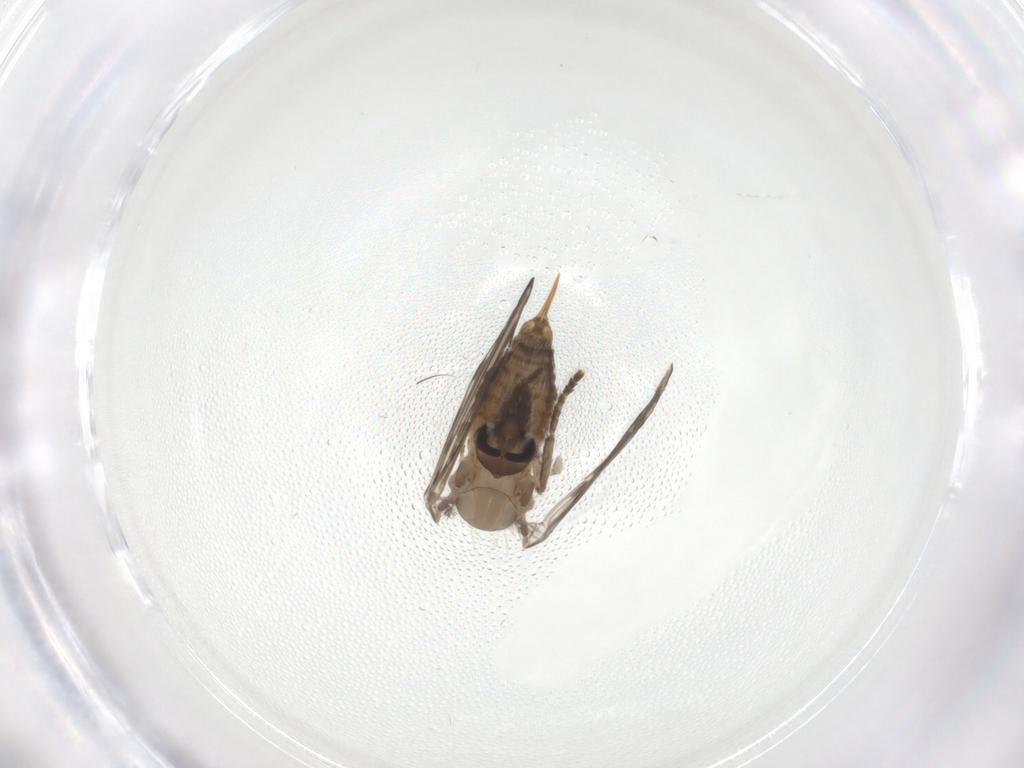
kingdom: Animalia
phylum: Arthropoda
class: Insecta
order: Diptera
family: Psychodidae
